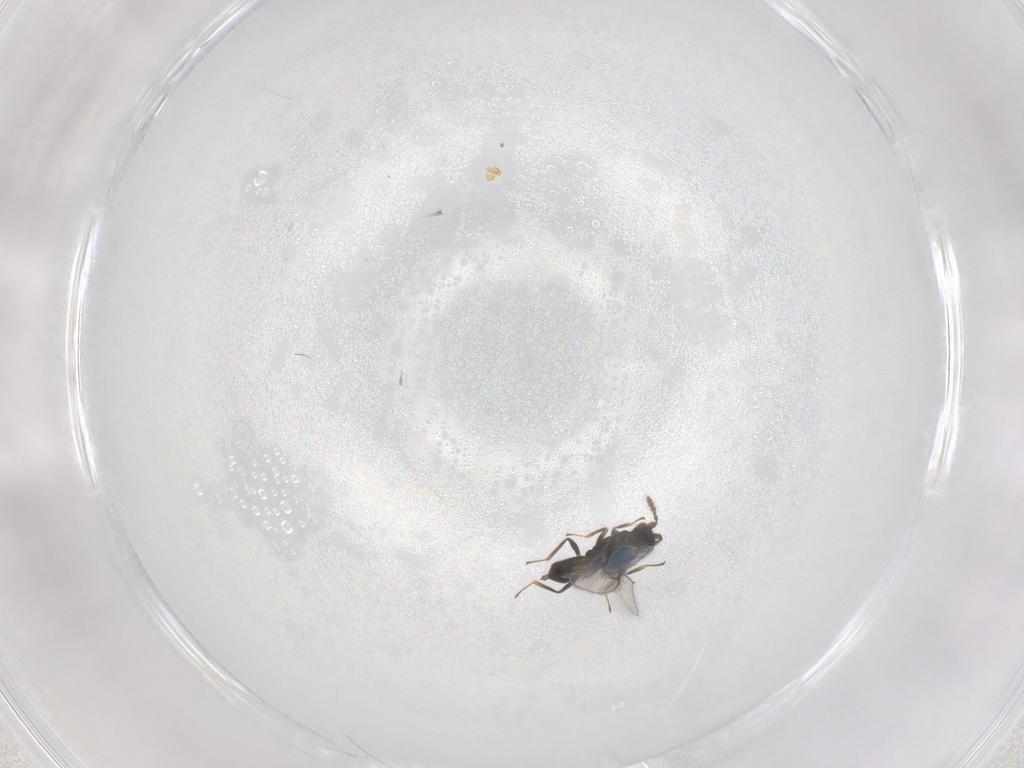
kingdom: Animalia
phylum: Arthropoda
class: Insecta
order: Hymenoptera
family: Eulophidae
